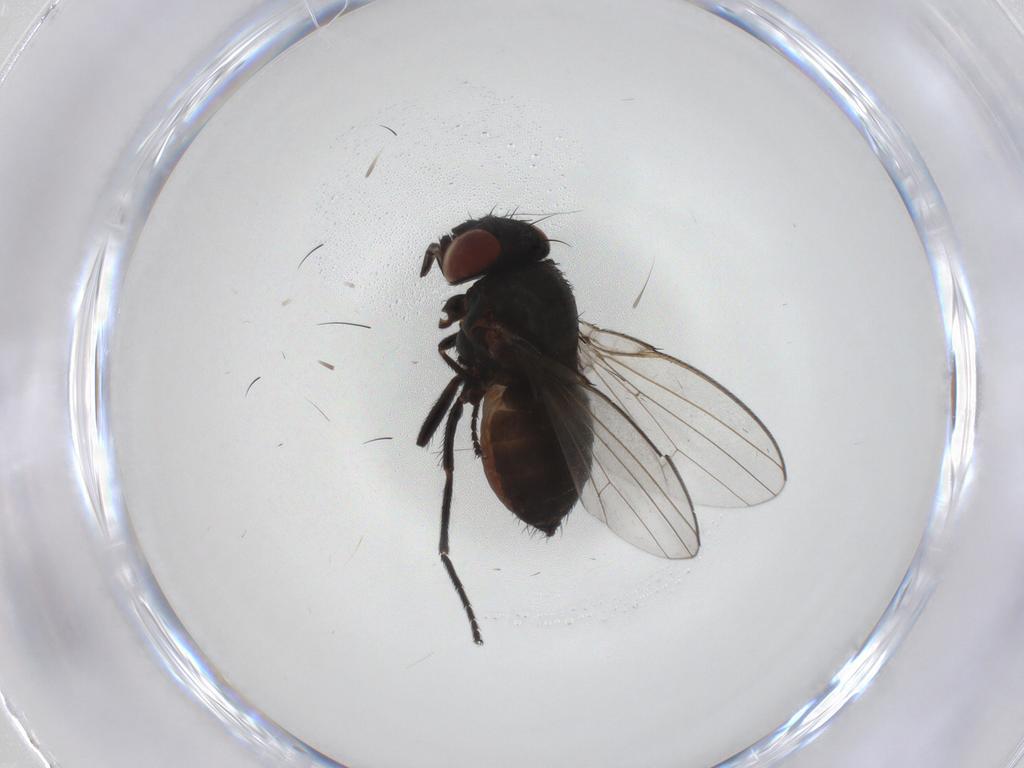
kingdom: Animalia
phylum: Arthropoda
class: Insecta
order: Diptera
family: Milichiidae
